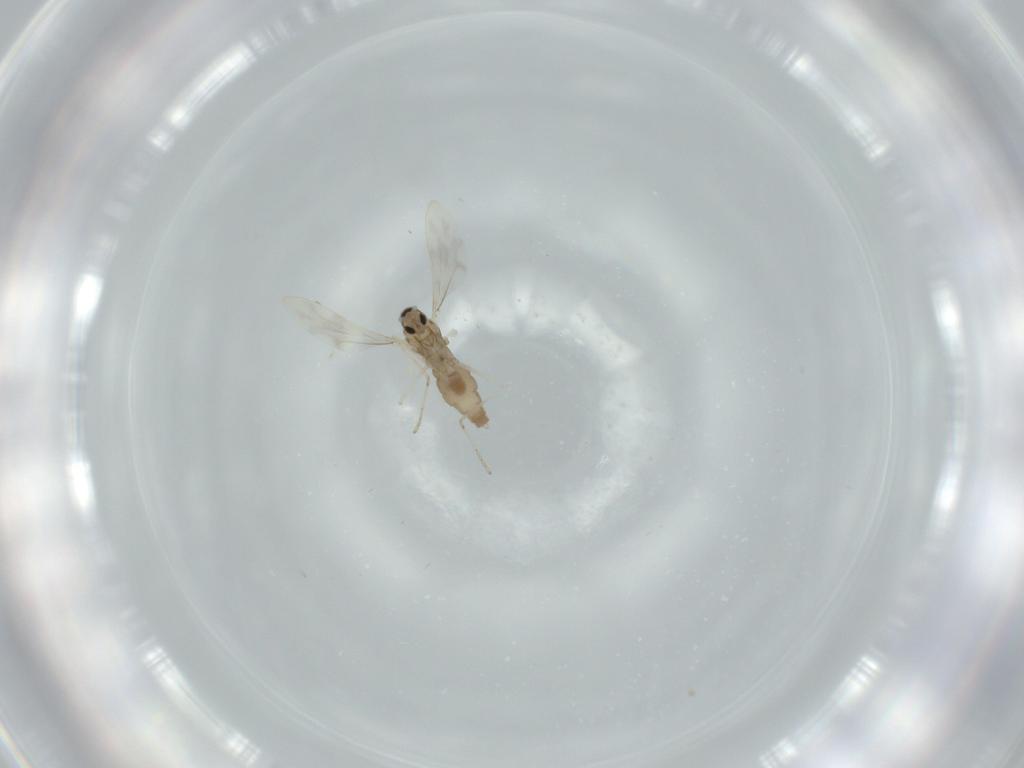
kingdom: Animalia
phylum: Arthropoda
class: Insecta
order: Diptera
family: Cecidomyiidae
